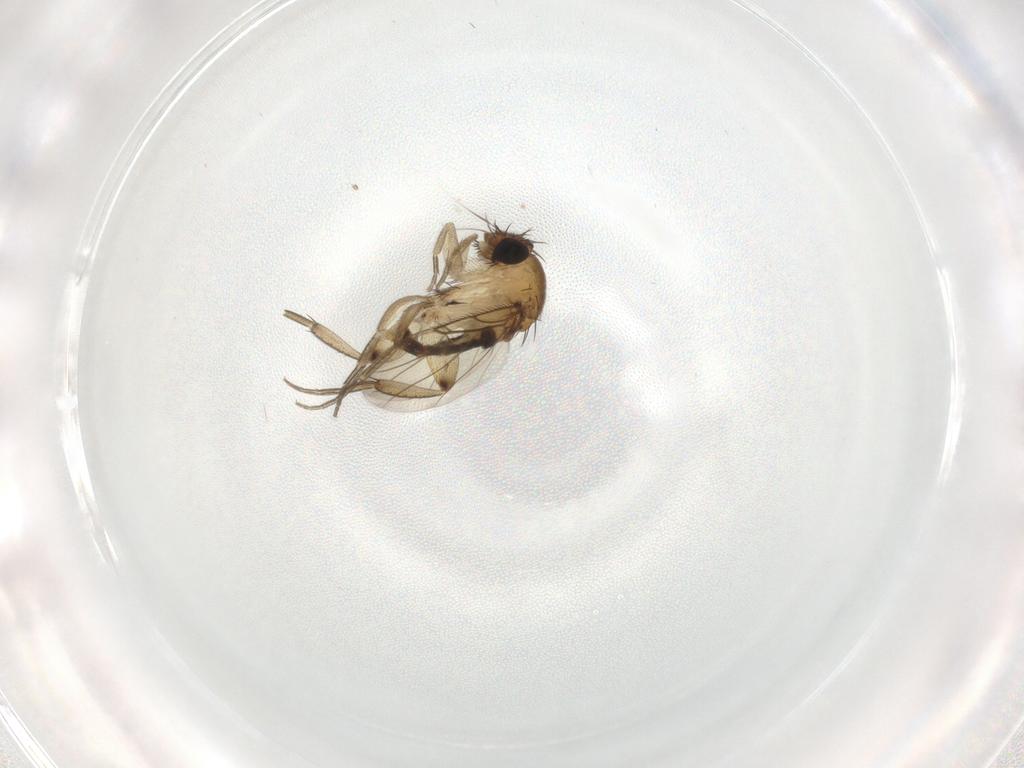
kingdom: Animalia
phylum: Arthropoda
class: Insecta
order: Diptera
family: Phoridae
